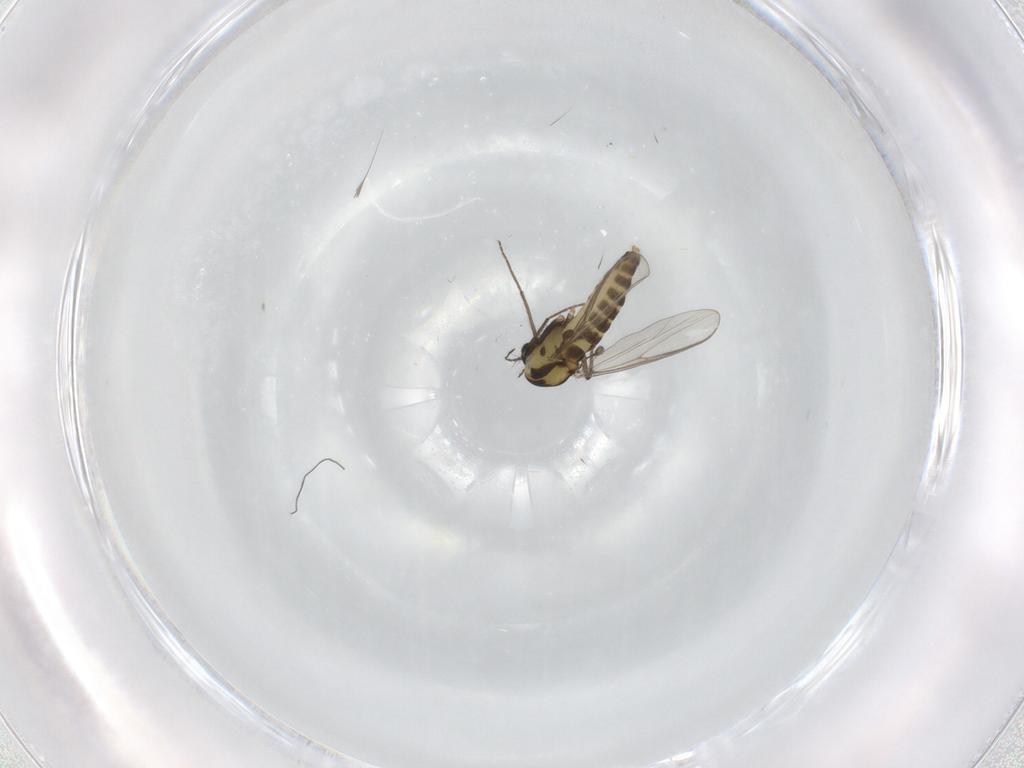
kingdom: Animalia
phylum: Arthropoda
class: Insecta
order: Diptera
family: Chironomidae
